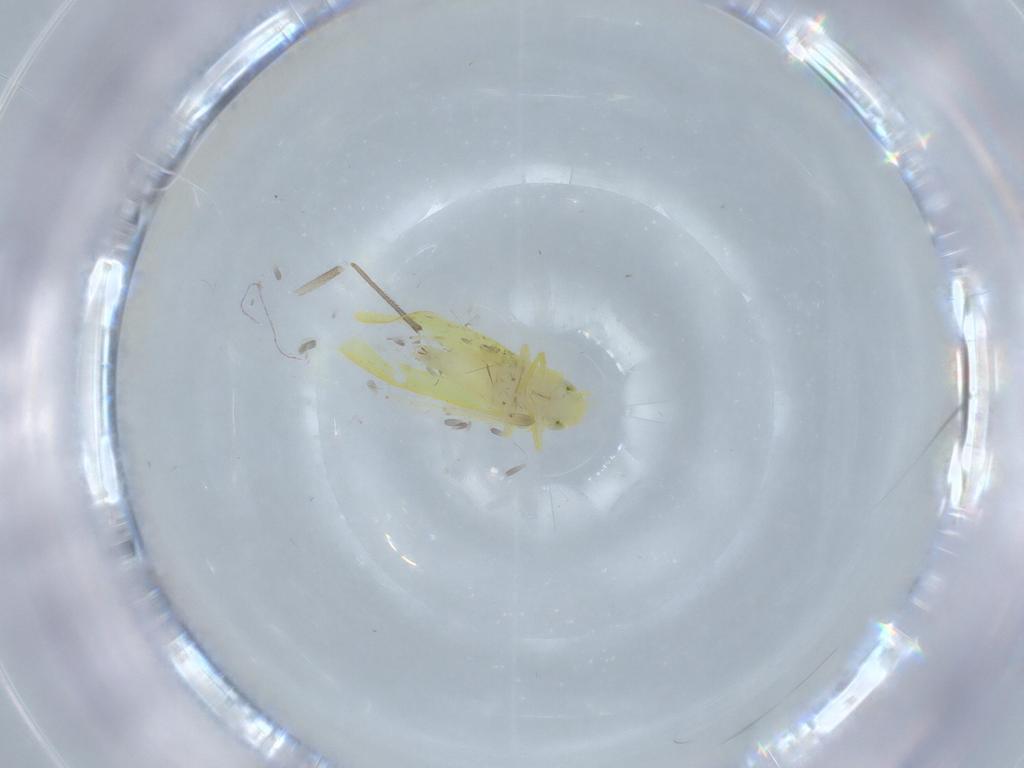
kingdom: Animalia
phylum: Arthropoda
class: Insecta
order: Hemiptera
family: Cicadellidae
